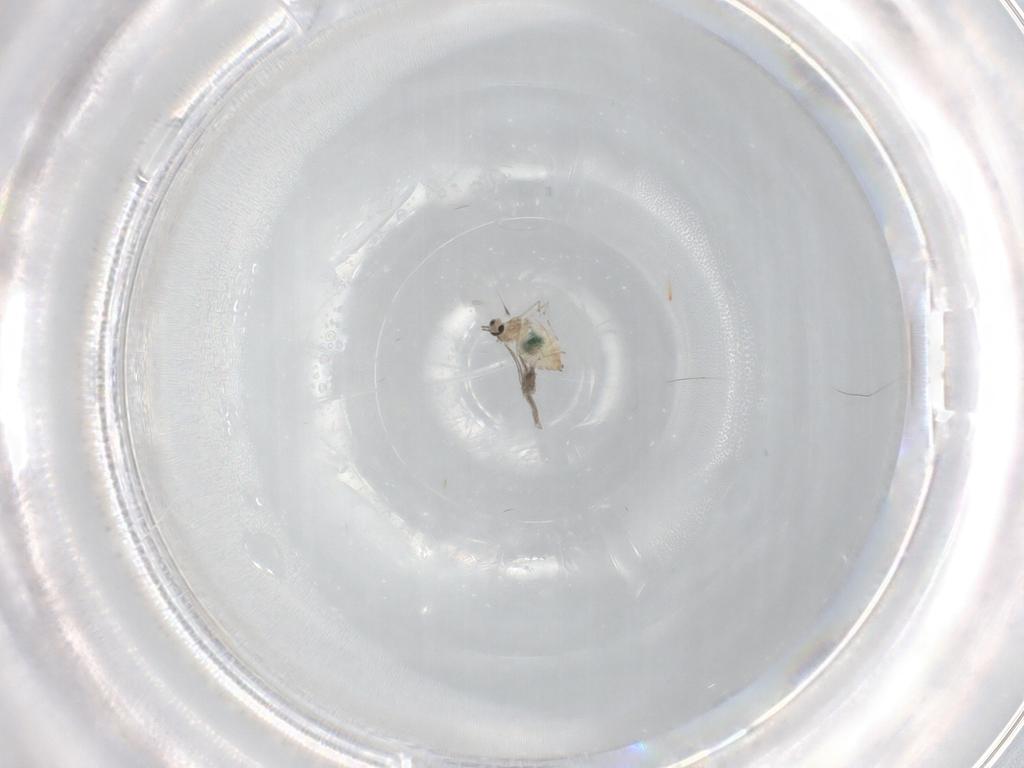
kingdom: Animalia
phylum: Arthropoda
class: Insecta
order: Diptera
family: Cecidomyiidae
